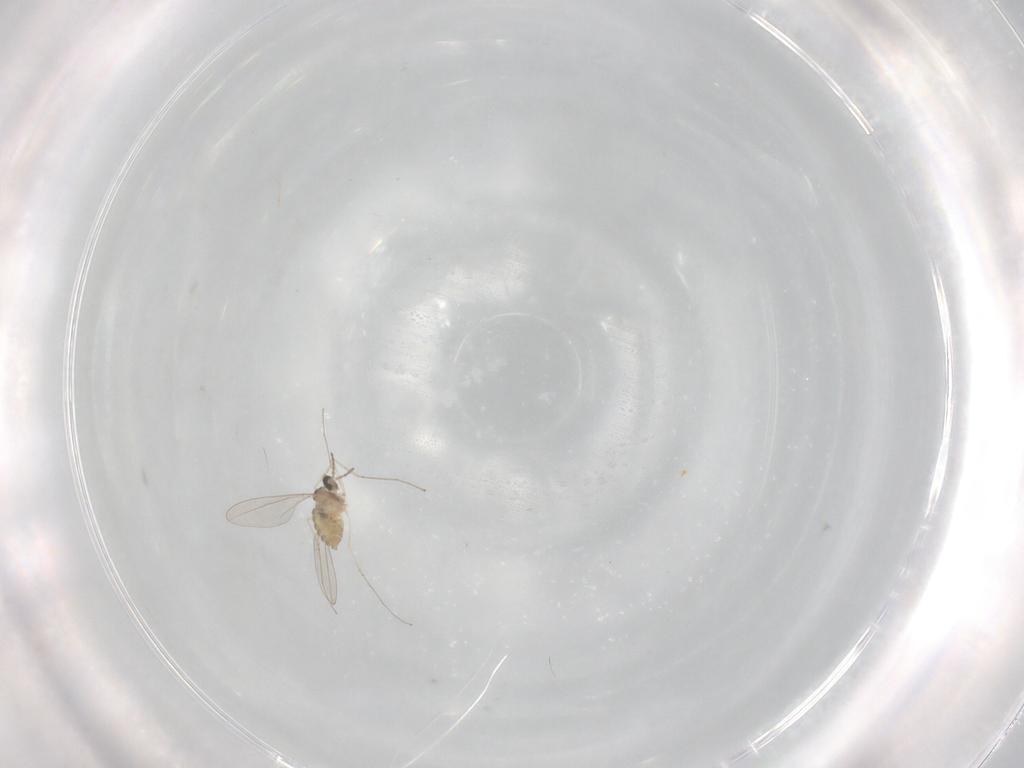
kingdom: Animalia
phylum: Arthropoda
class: Insecta
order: Diptera
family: Cecidomyiidae
